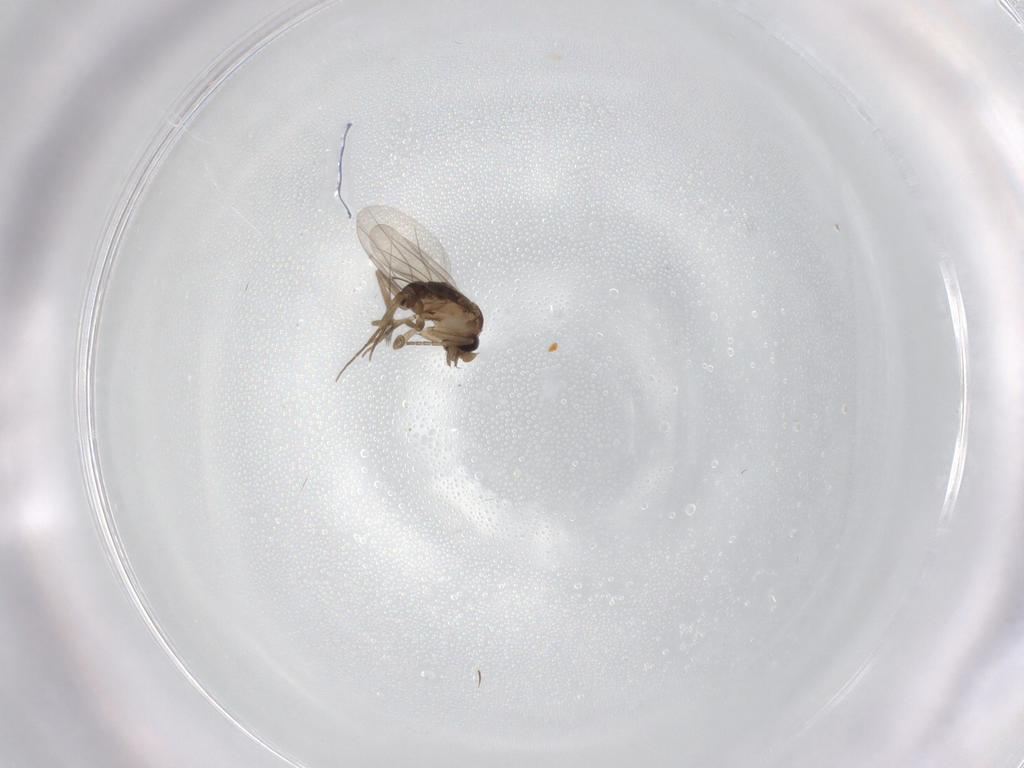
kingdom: Animalia
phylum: Arthropoda
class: Insecta
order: Diptera
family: Phoridae
